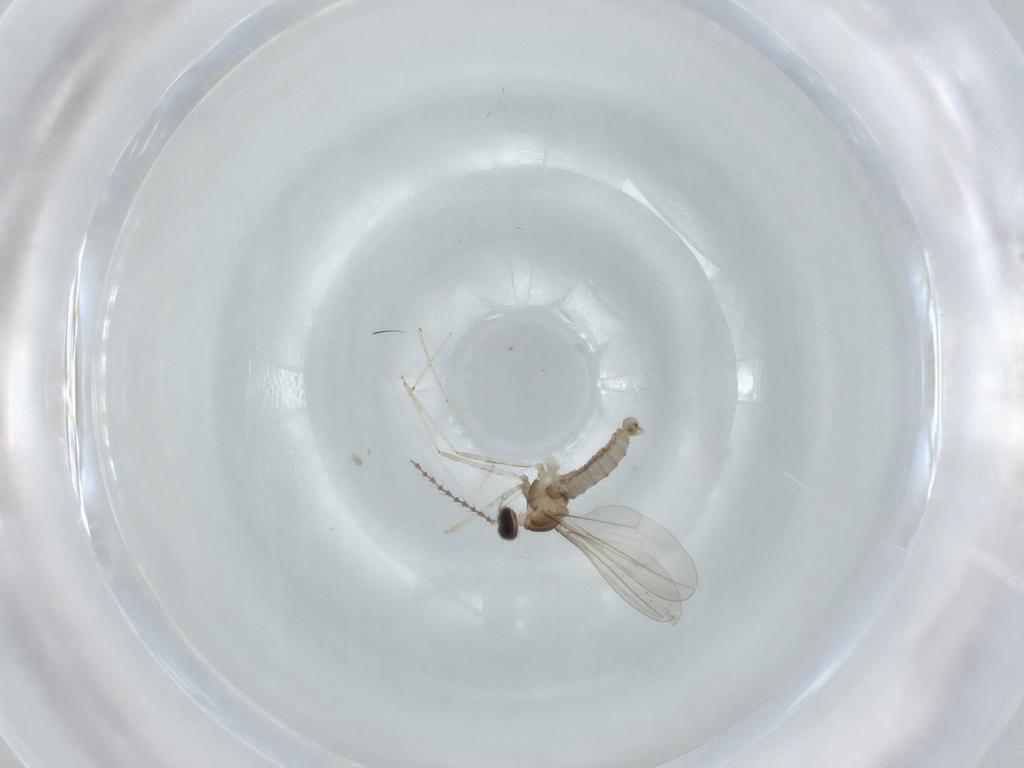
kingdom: Animalia
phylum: Arthropoda
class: Insecta
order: Diptera
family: Cecidomyiidae
